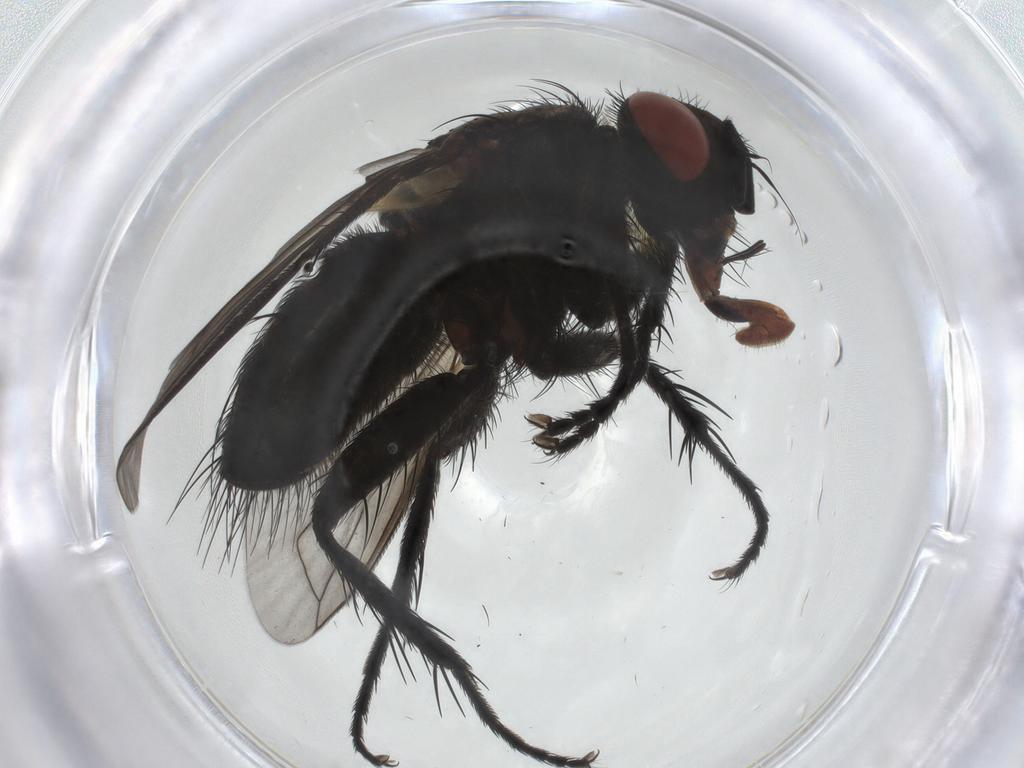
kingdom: Animalia
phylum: Arthropoda
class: Insecta
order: Diptera
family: Tachinidae
